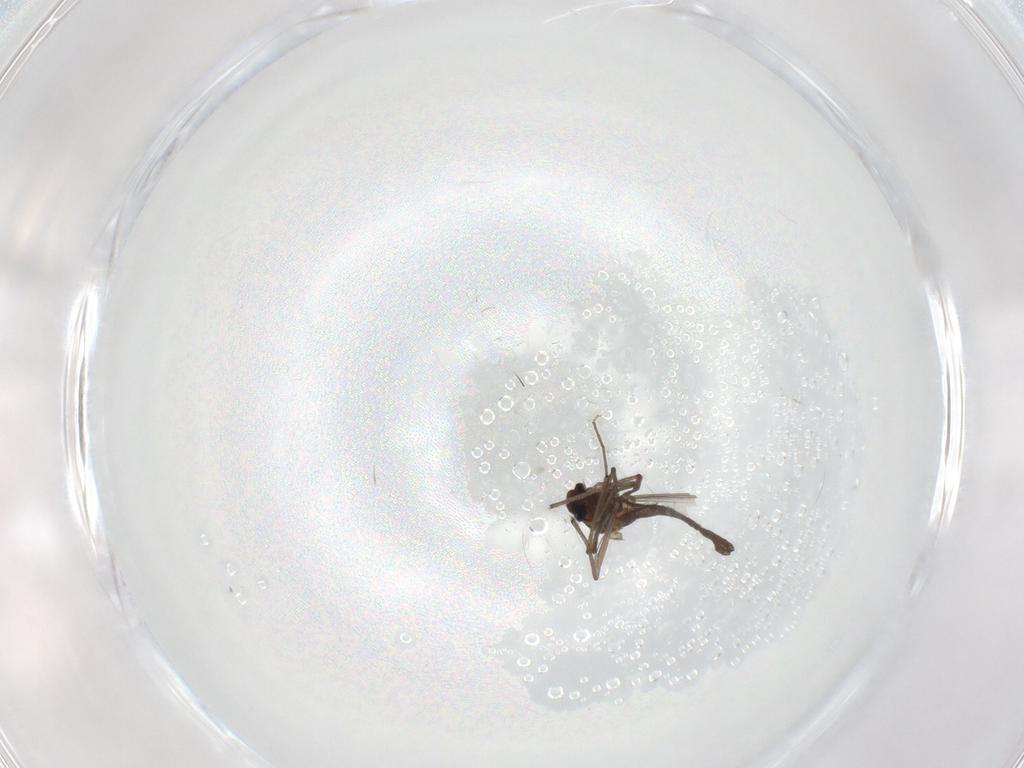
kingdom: Animalia
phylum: Arthropoda
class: Insecta
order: Diptera
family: Chironomidae
